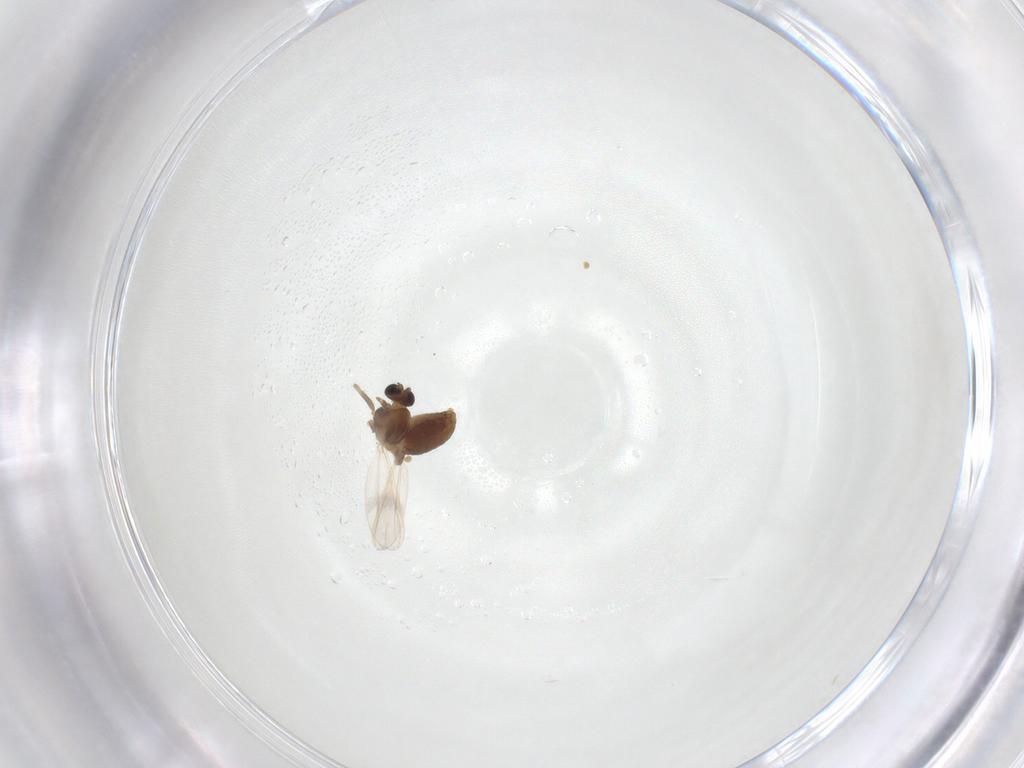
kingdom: Animalia
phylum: Arthropoda
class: Insecta
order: Diptera
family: Chironomidae
